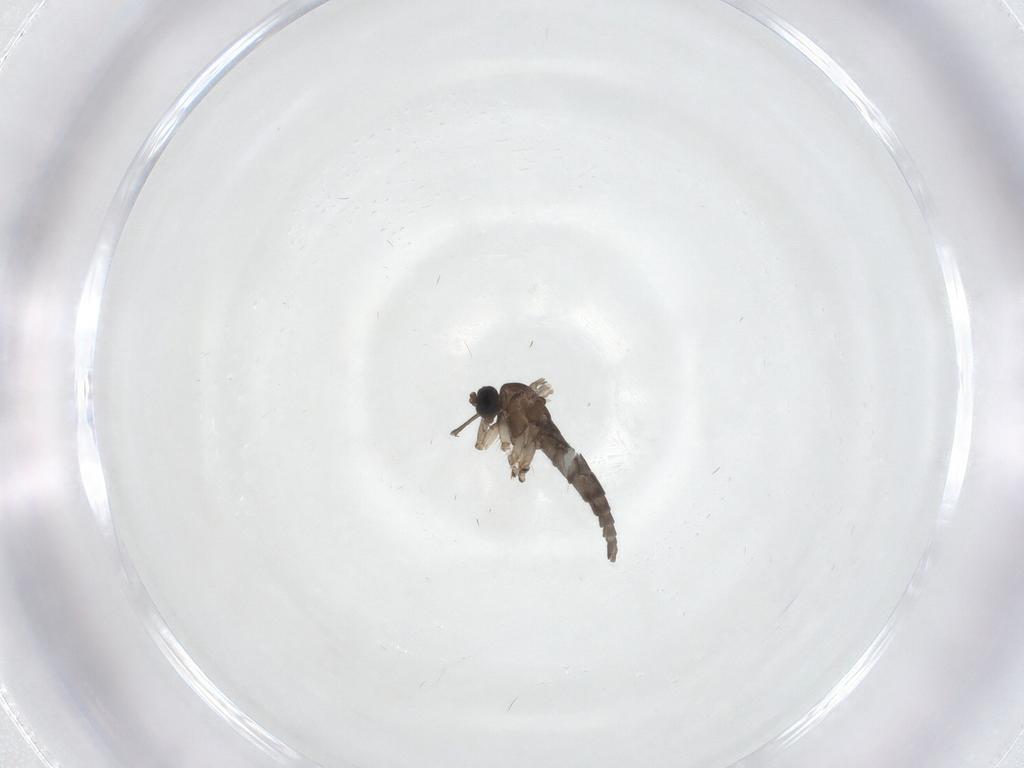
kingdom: Animalia
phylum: Arthropoda
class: Insecta
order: Diptera
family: Sciaridae
